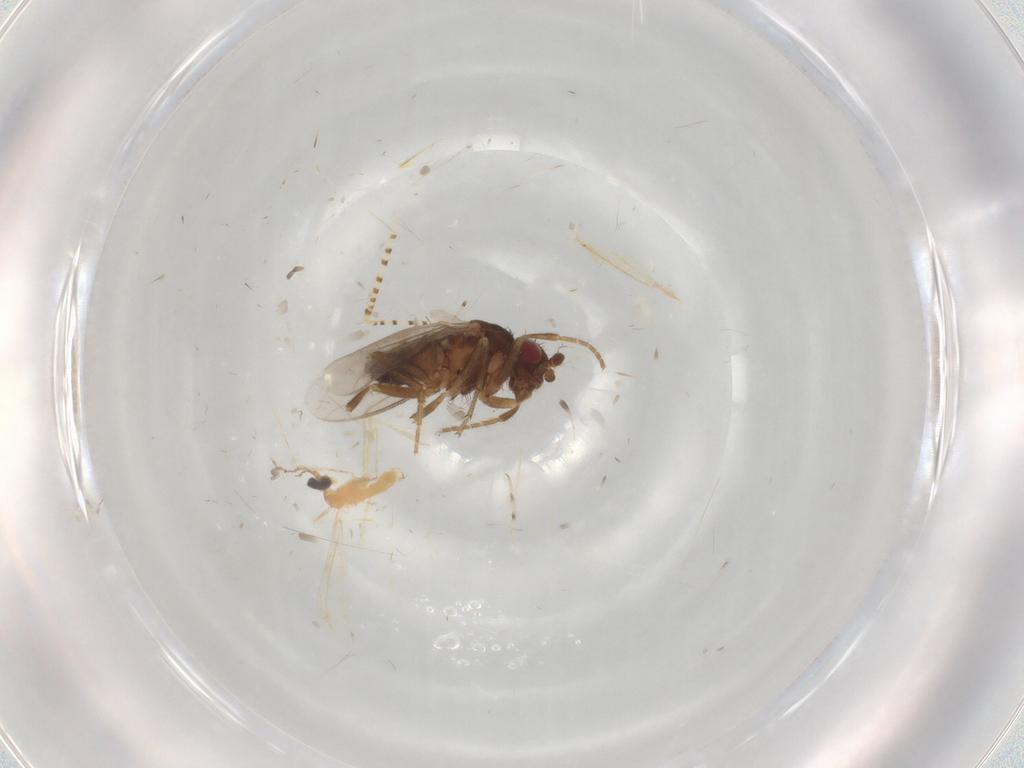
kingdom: Animalia
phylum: Arthropoda
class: Insecta
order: Diptera
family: Sphaeroceridae
